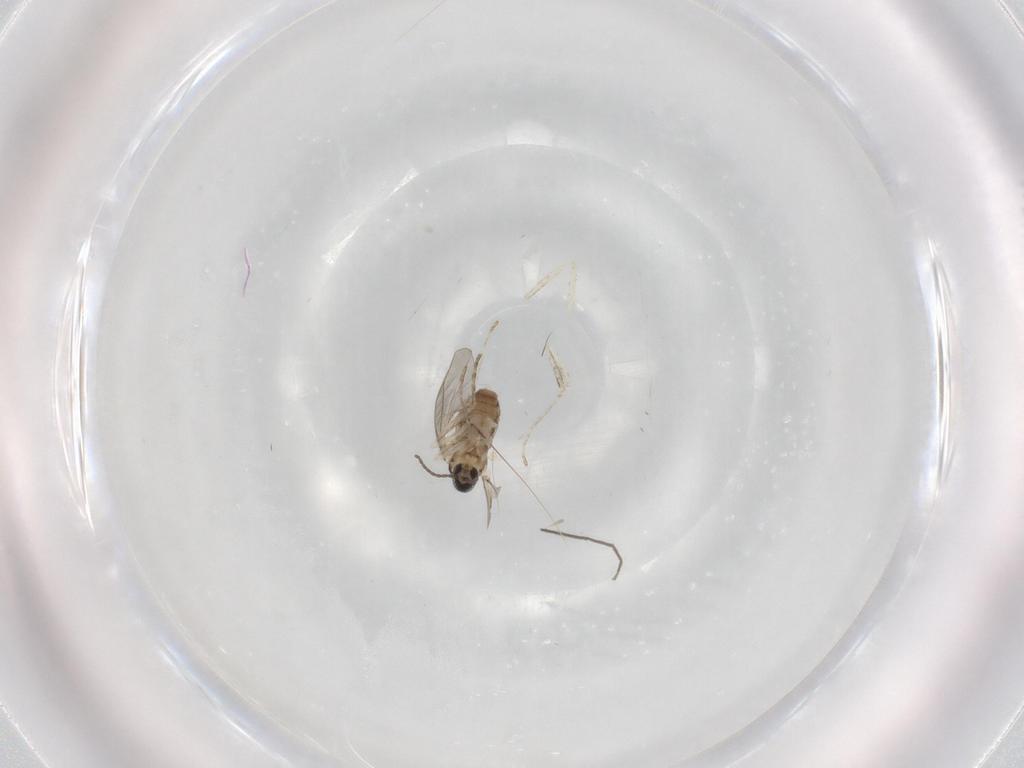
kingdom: Animalia
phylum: Arthropoda
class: Insecta
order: Diptera
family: Cecidomyiidae
